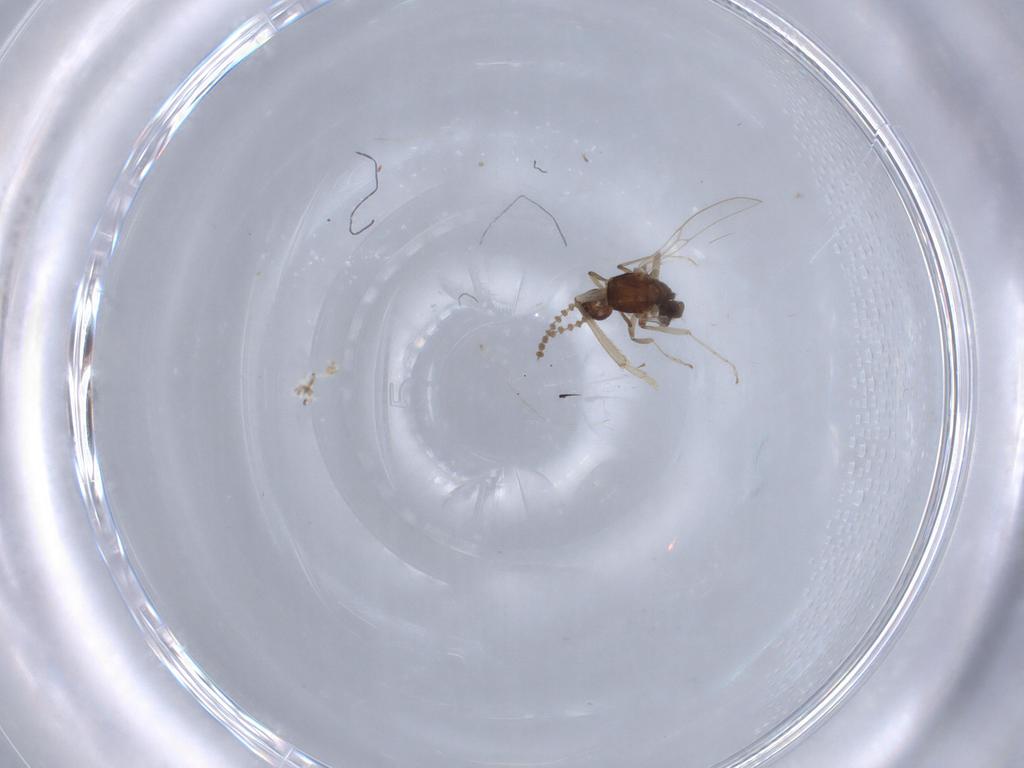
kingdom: Animalia
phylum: Arthropoda
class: Insecta
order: Diptera
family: Cecidomyiidae
